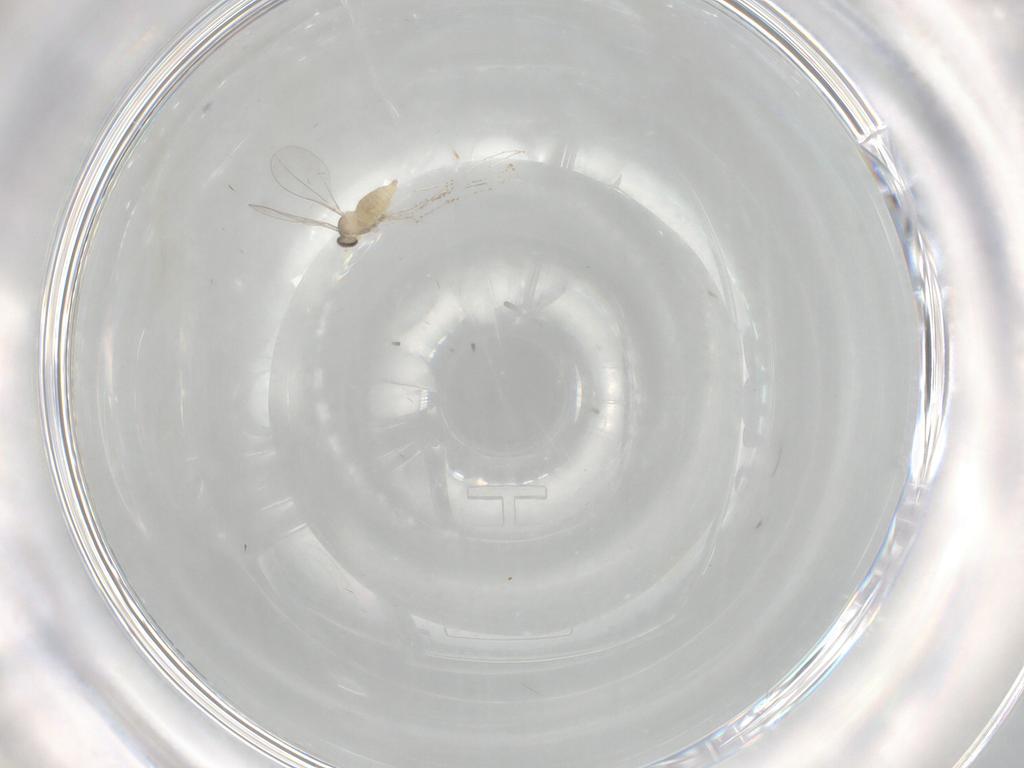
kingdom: Animalia
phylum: Arthropoda
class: Insecta
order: Diptera
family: Cecidomyiidae
